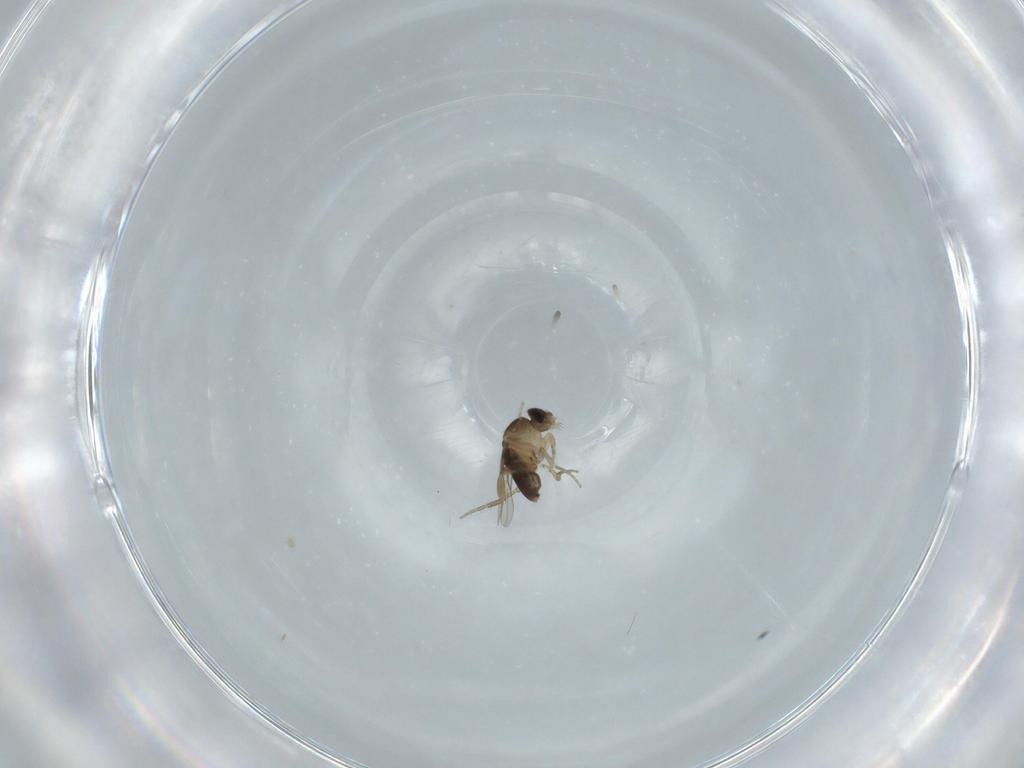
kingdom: Animalia
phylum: Arthropoda
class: Insecta
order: Diptera
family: Phoridae
